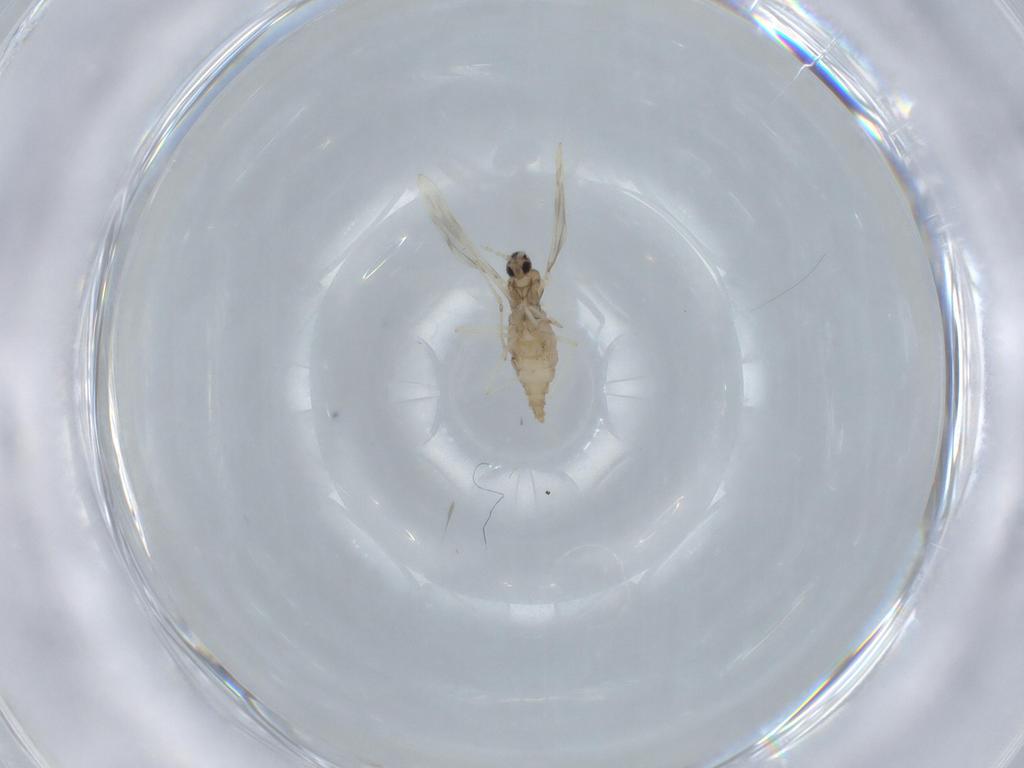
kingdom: Animalia
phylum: Arthropoda
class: Insecta
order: Diptera
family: Cecidomyiidae
